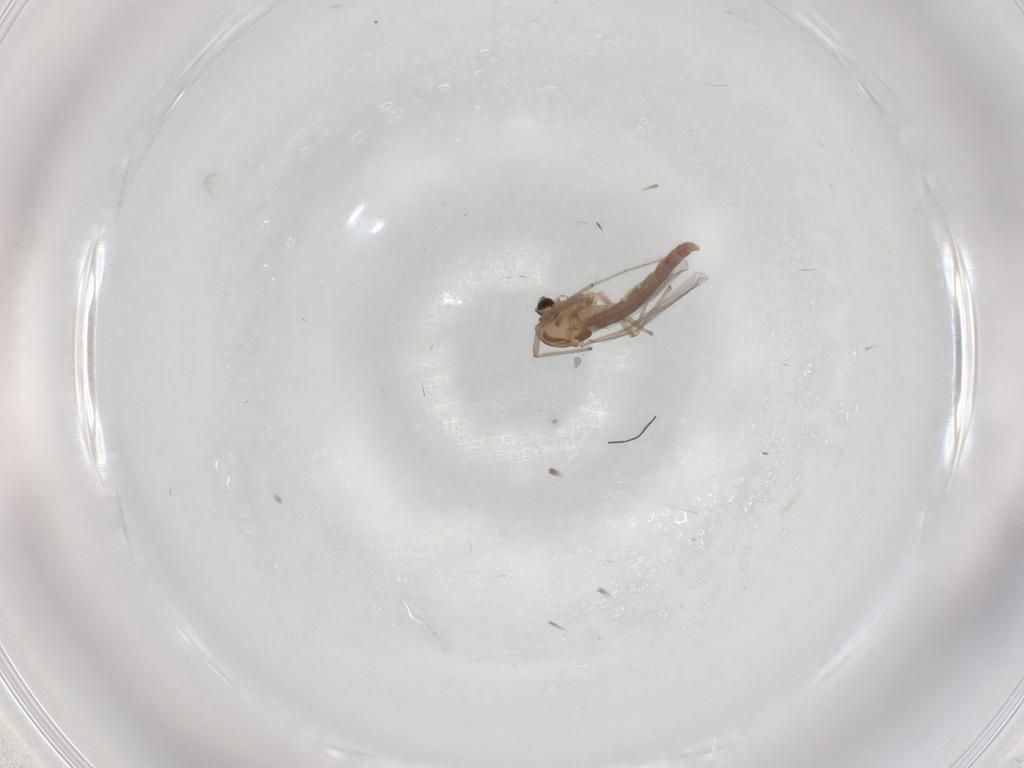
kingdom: Animalia
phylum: Arthropoda
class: Insecta
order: Diptera
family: Chironomidae
